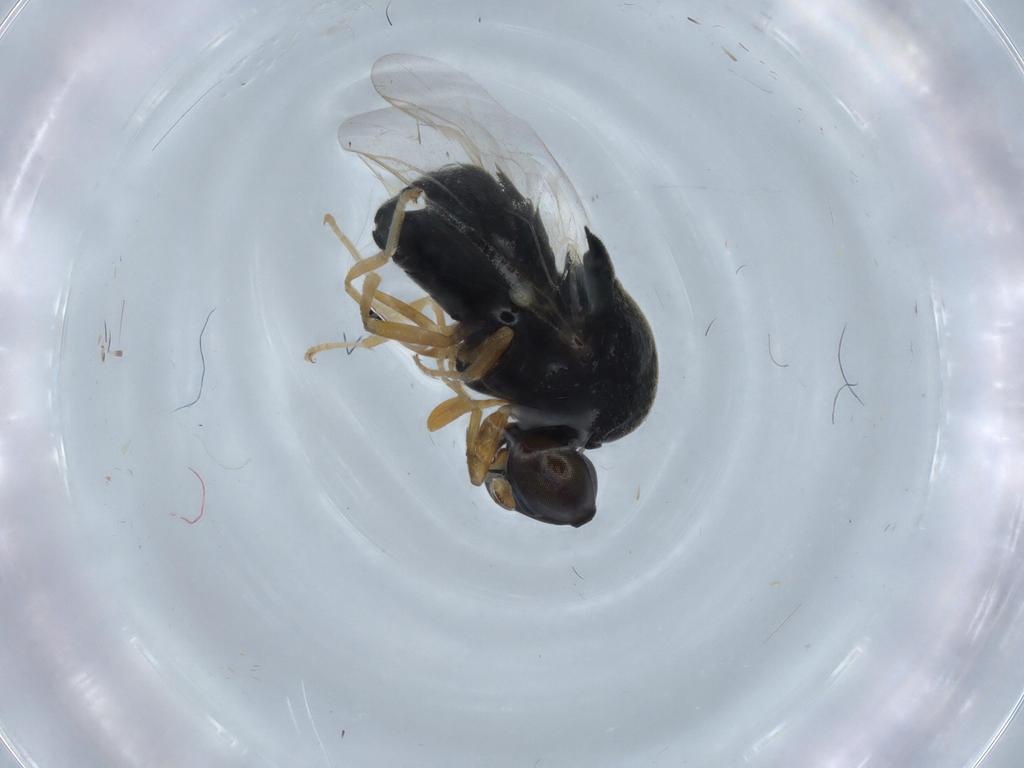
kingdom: Animalia
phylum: Arthropoda
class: Insecta
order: Diptera
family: Stratiomyidae
